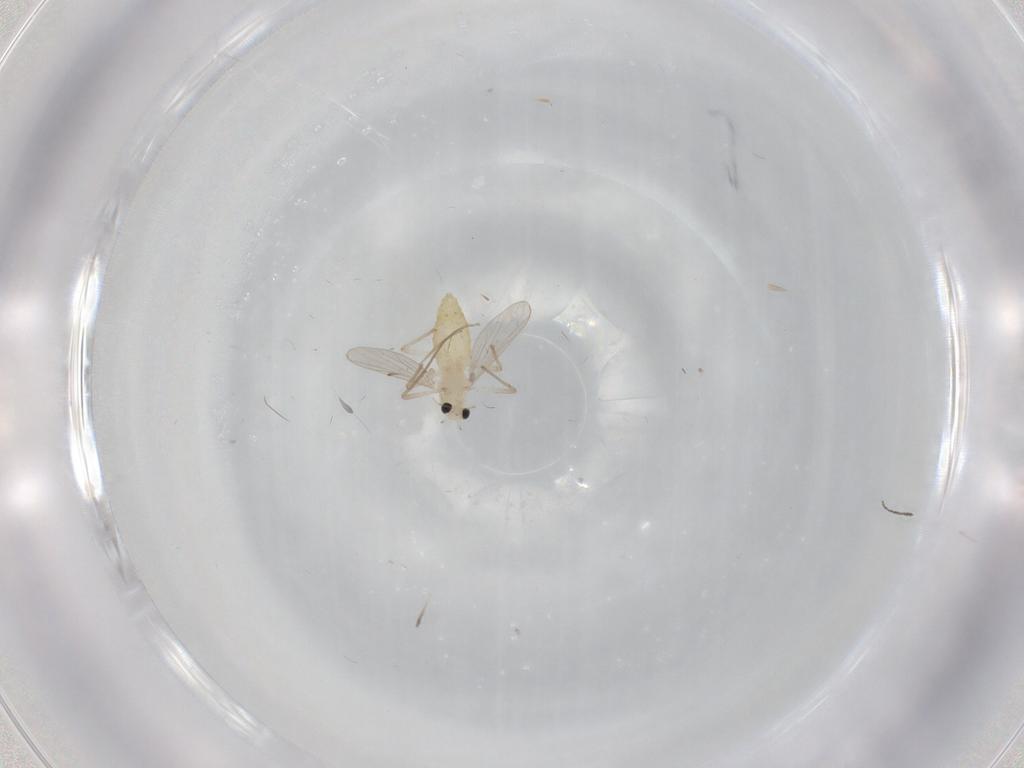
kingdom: Animalia
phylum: Arthropoda
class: Insecta
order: Diptera
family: Chironomidae
